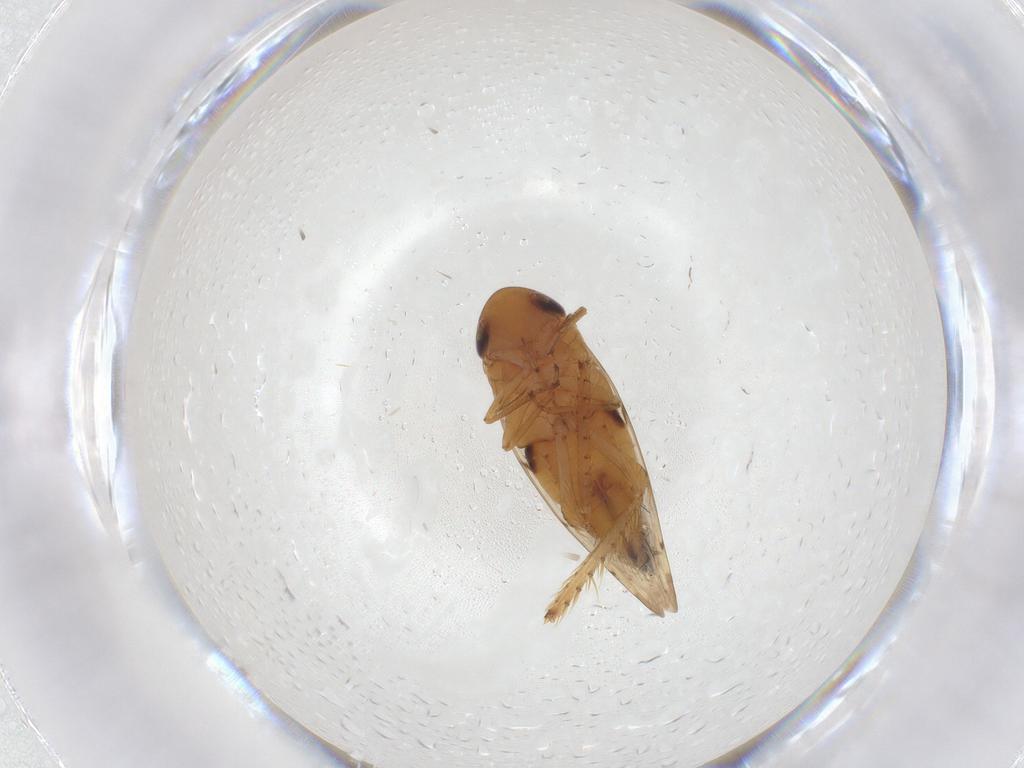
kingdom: Animalia
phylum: Arthropoda
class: Insecta
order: Hemiptera
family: Cicadellidae
